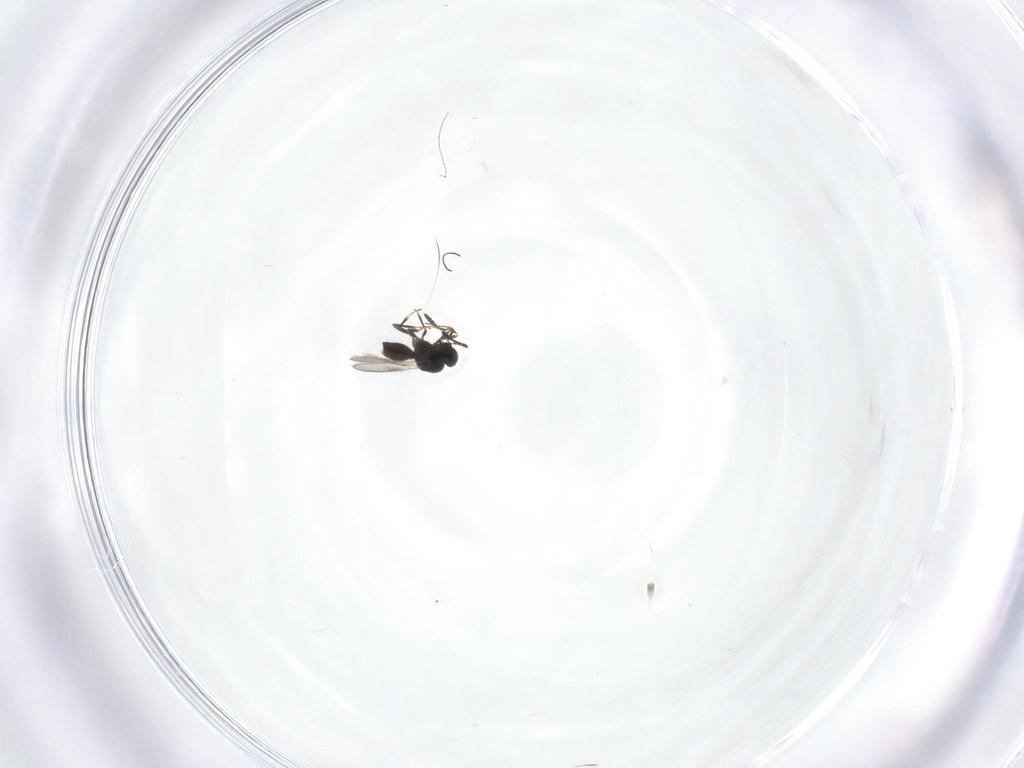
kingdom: Animalia
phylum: Arthropoda
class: Insecta
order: Hymenoptera
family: Scelionidae
